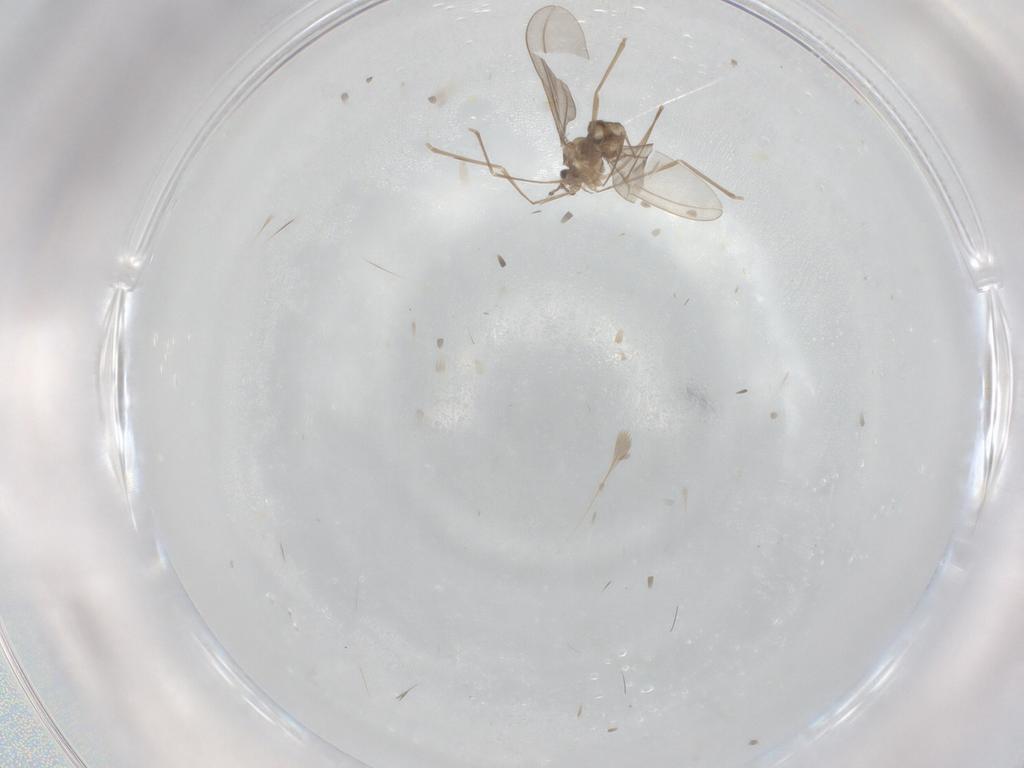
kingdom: Animalia
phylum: Arthropoda
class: Insecta
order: Diptera
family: Cecidomyiidae
